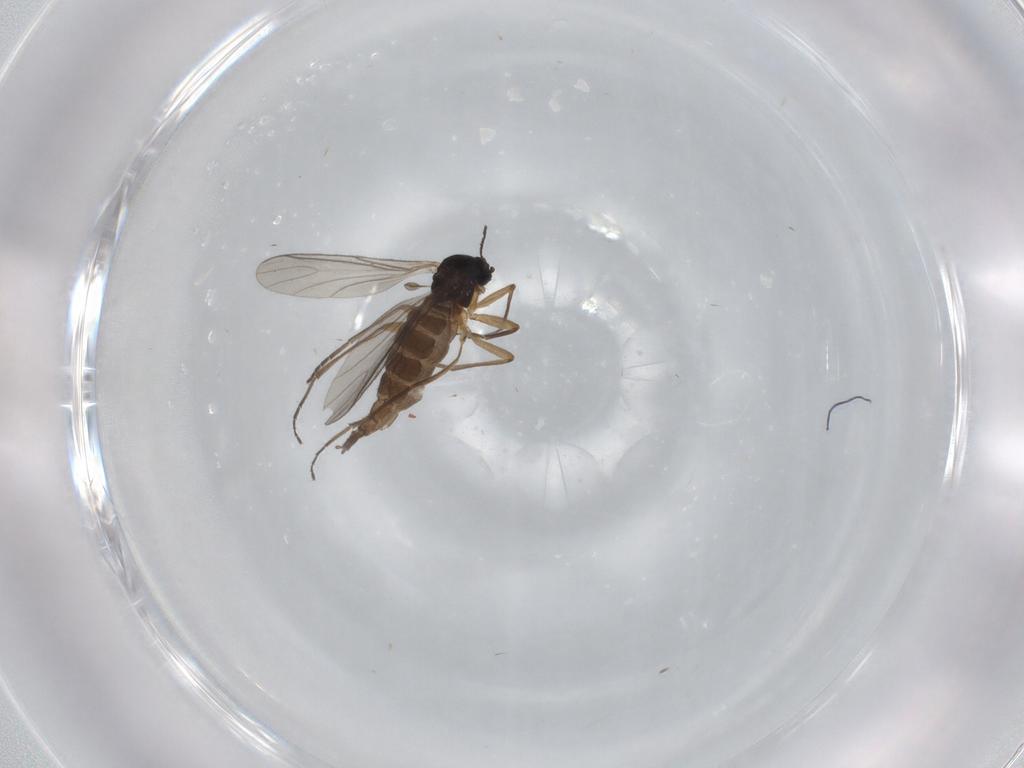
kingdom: Animalia
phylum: Arthropoda
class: Insecta
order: Diptera
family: Sciaridae
